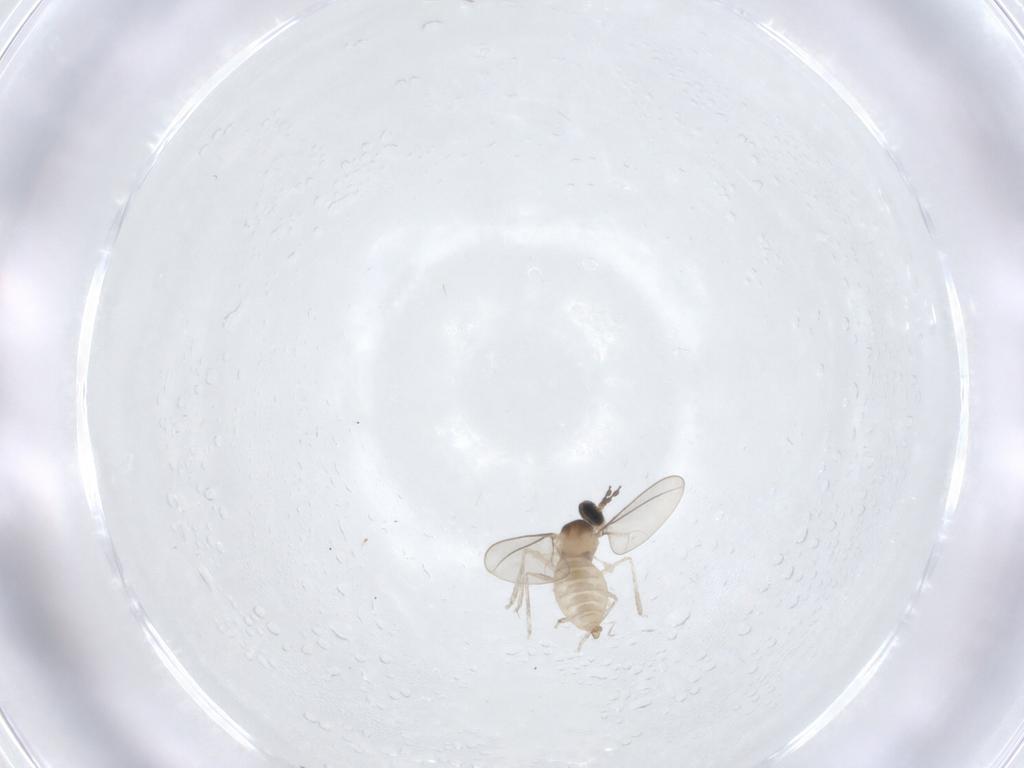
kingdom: Animalia
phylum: Arthropoda
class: Insecta
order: Diptera
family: Cecidomyiidae
